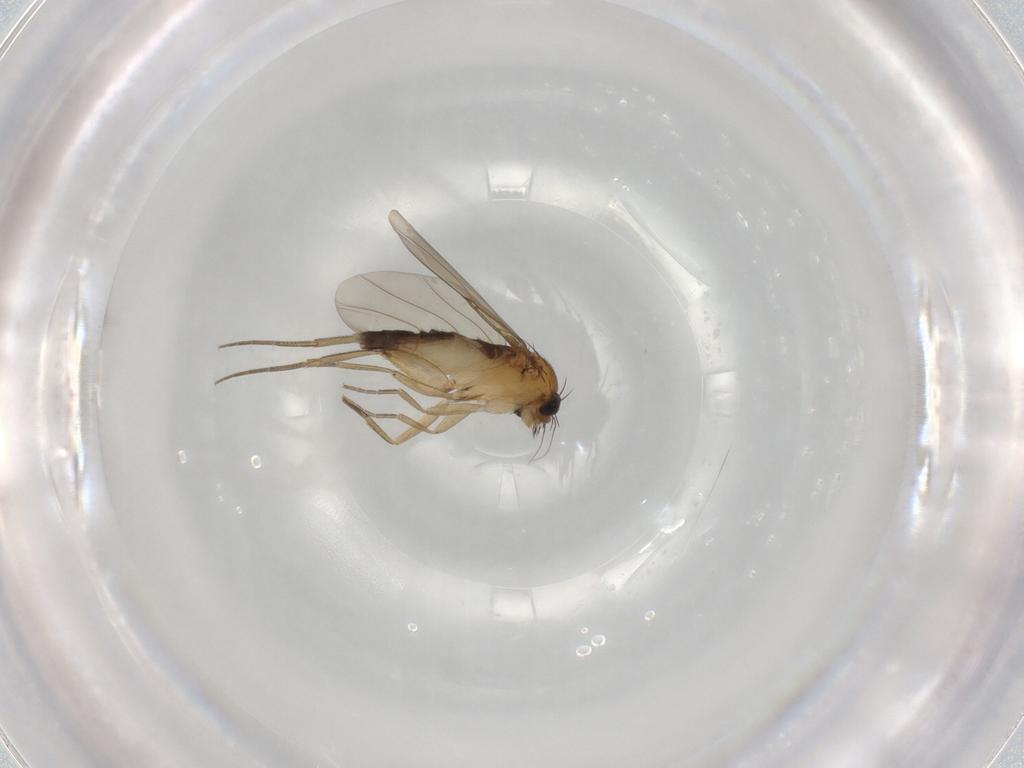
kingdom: Animalia
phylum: Arthropoda
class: Insecta
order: Diptera
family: Phoridae
